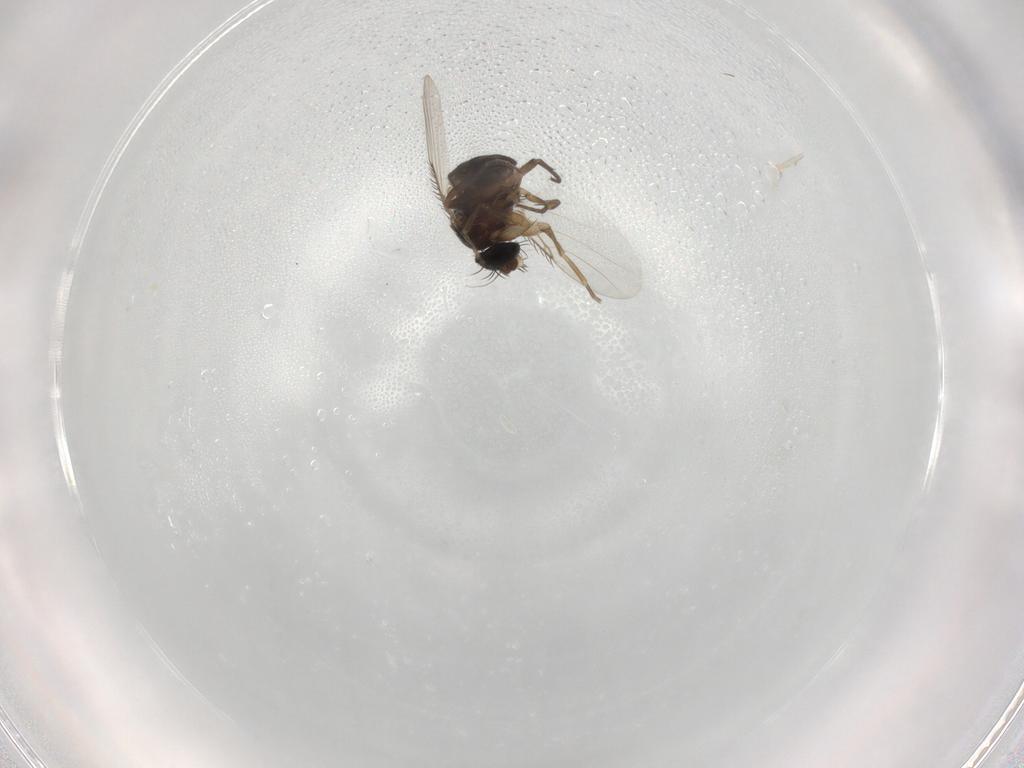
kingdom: Animalia
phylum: Arthropoda
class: Insecta
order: Diptera
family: Phoridae
